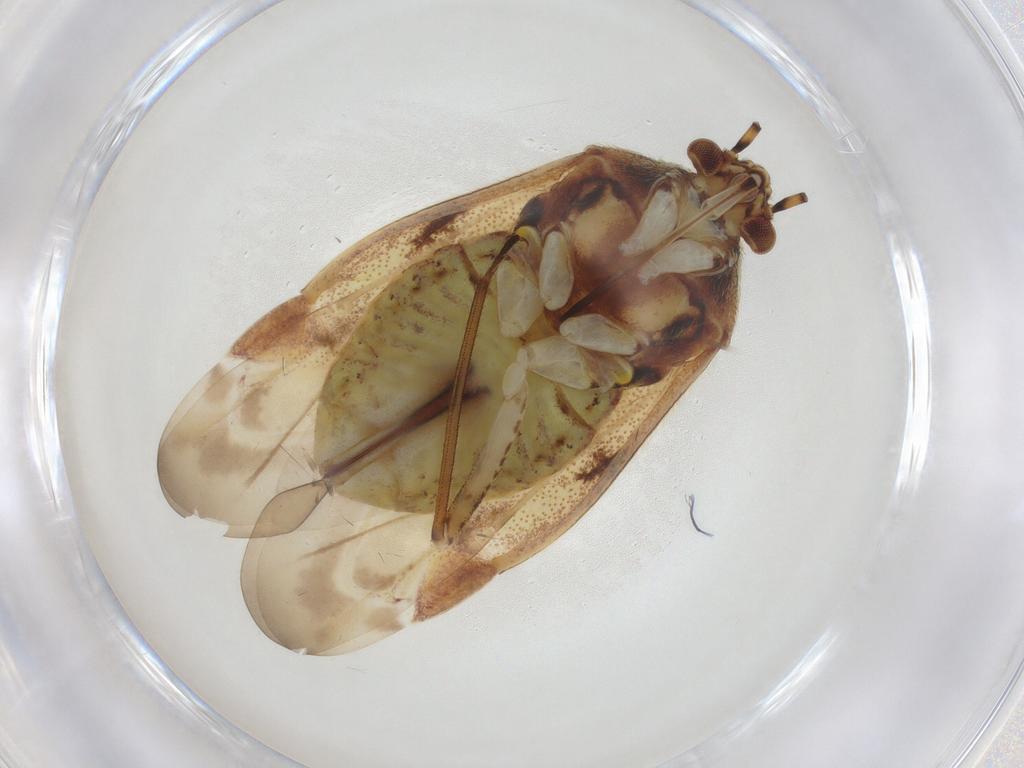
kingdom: Animalia
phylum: Arthropoda
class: Insecta
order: Hemiptera
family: Miridae
